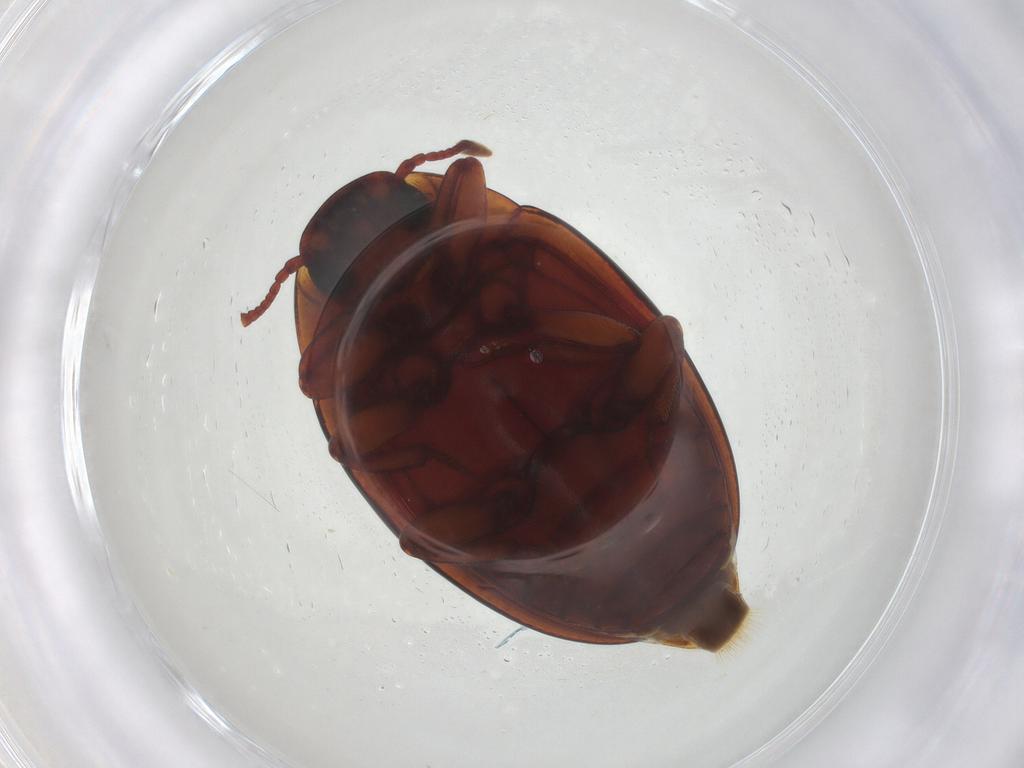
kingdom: Animalia
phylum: Arthropoda
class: Insecta
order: Coleoptera
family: Zopheridae
